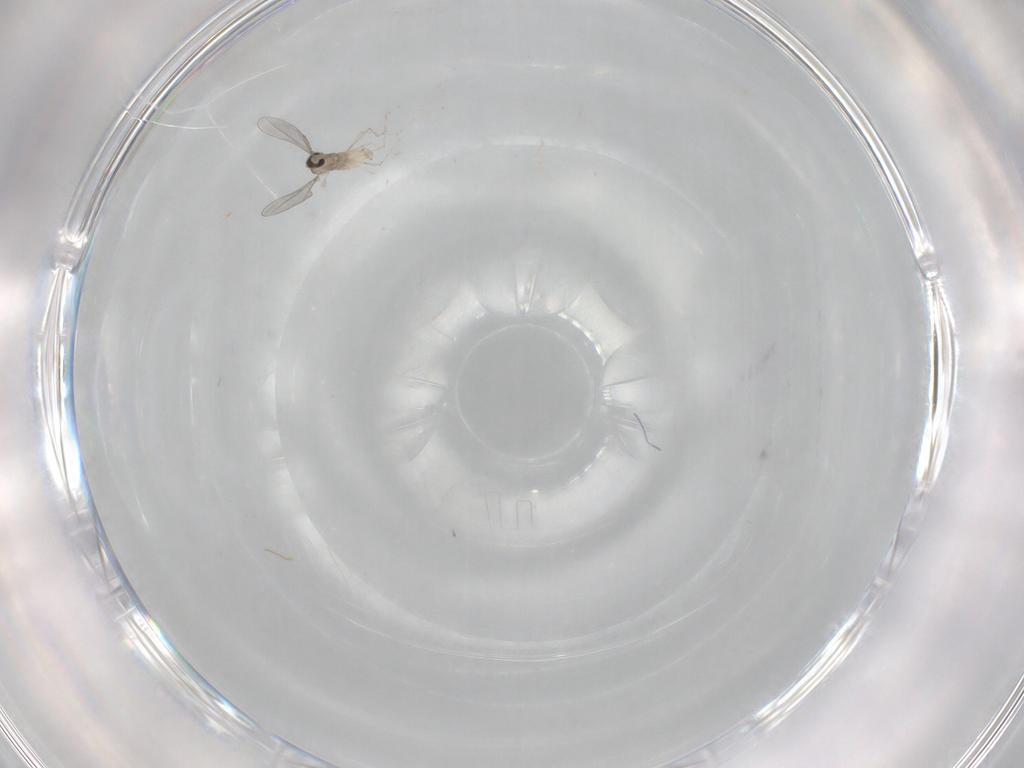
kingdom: Animalia
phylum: Arthropoda
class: Insecta
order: Diptera
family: Cecidomyiidae
